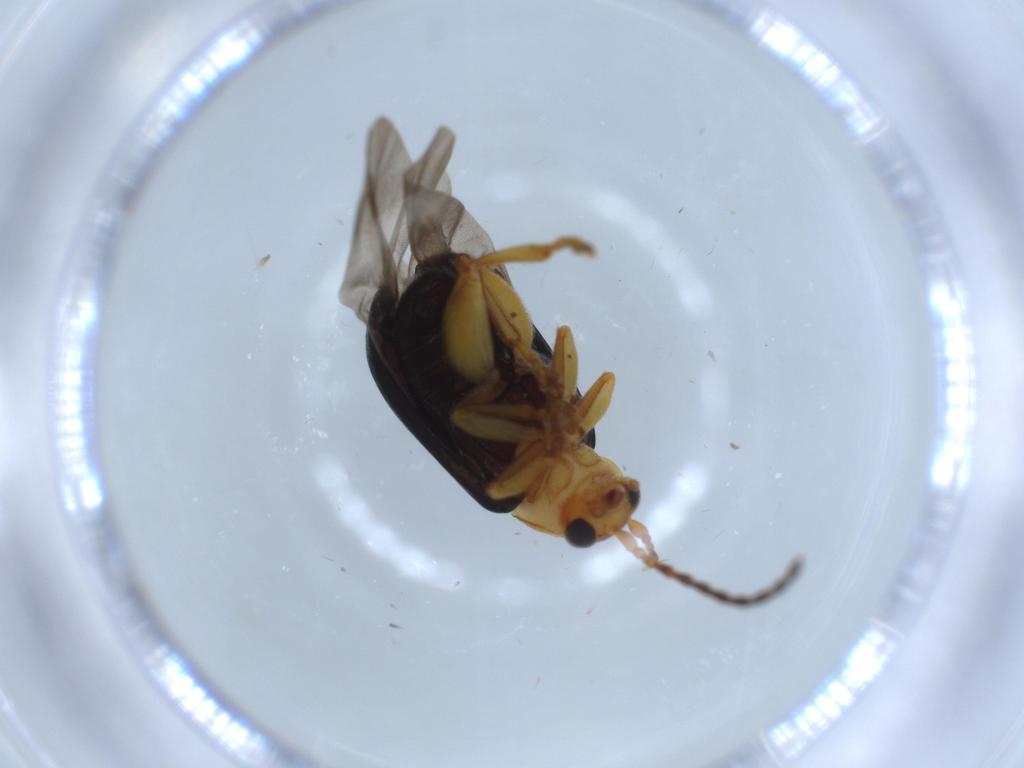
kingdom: Animalia
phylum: Arthropoda
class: Insecta
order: Coleoptera
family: Chrysomelidae
